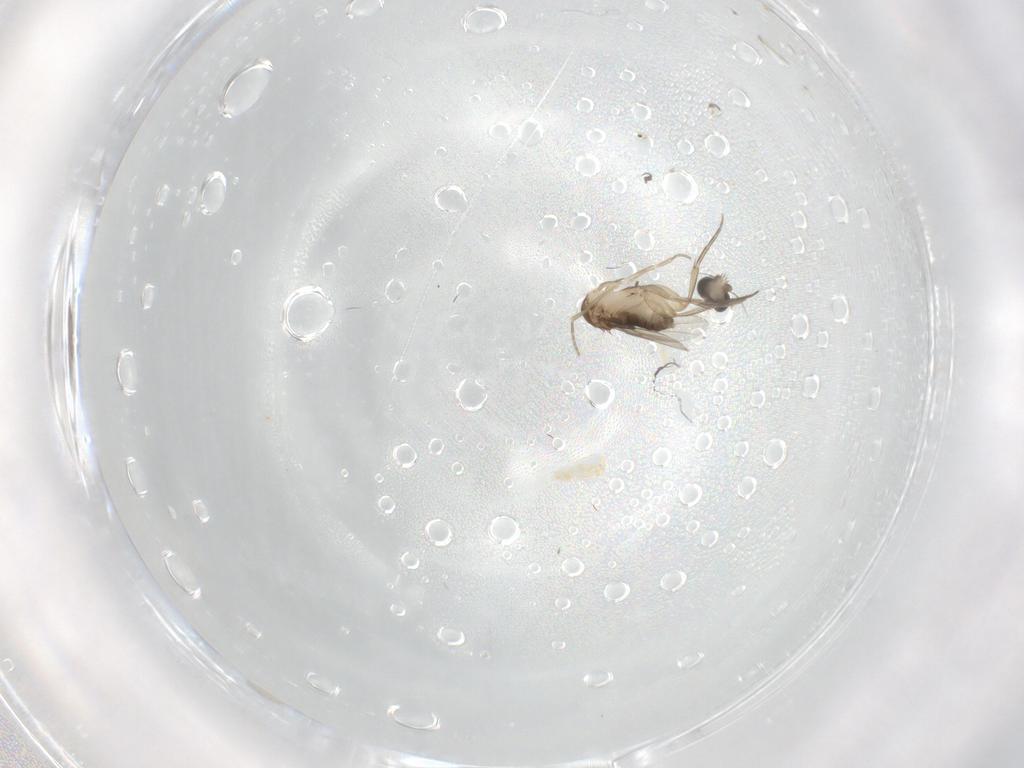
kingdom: Animalia
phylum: Arthropoda
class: Insecta
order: Diptera
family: Phoridae
